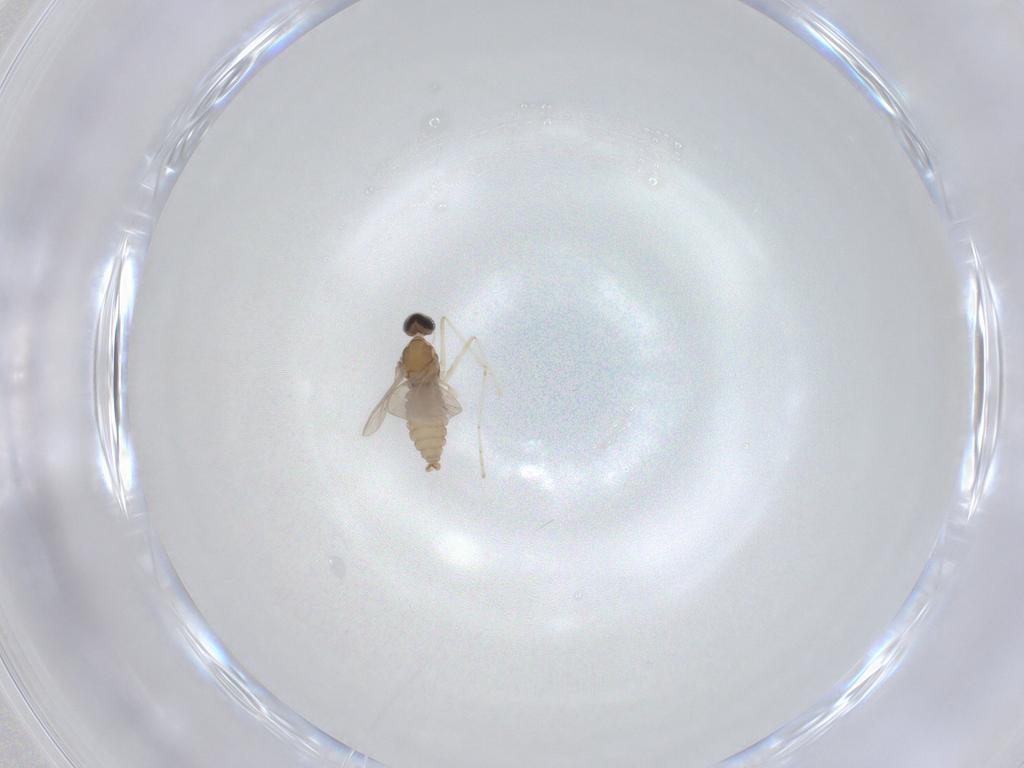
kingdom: Animalia
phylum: Arthropoda
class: Insecta
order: Diptera
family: Cecidomyiidae
